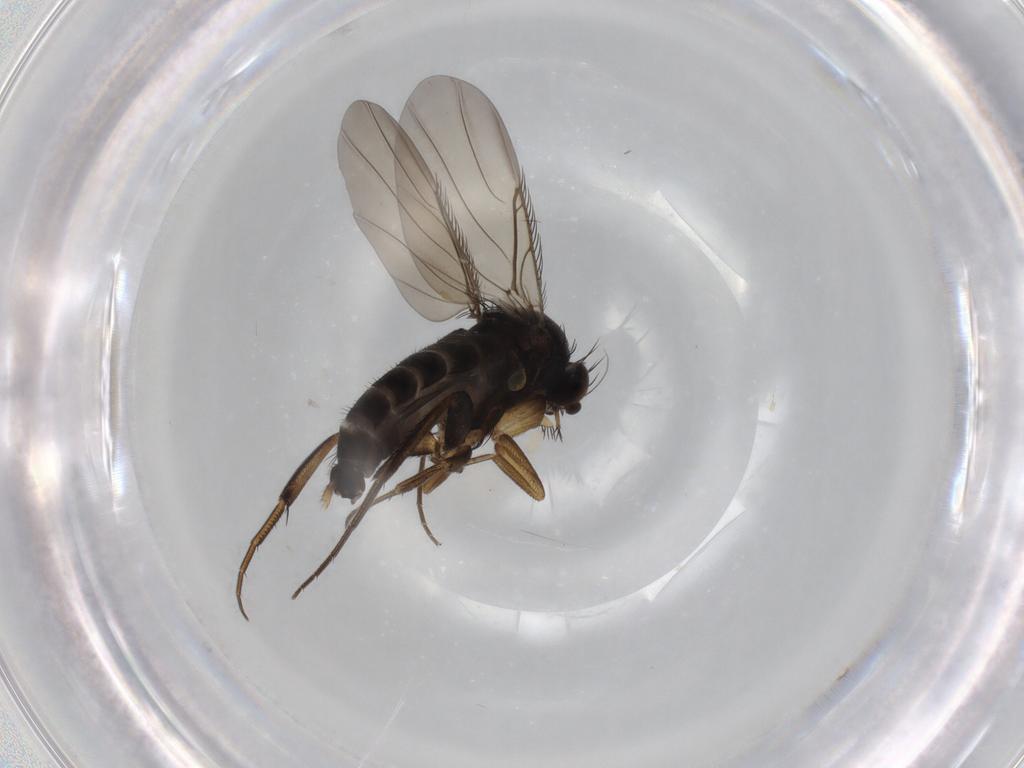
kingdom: Animalia
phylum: Arthropoda
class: Insecta
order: Diptera
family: Phoridae
